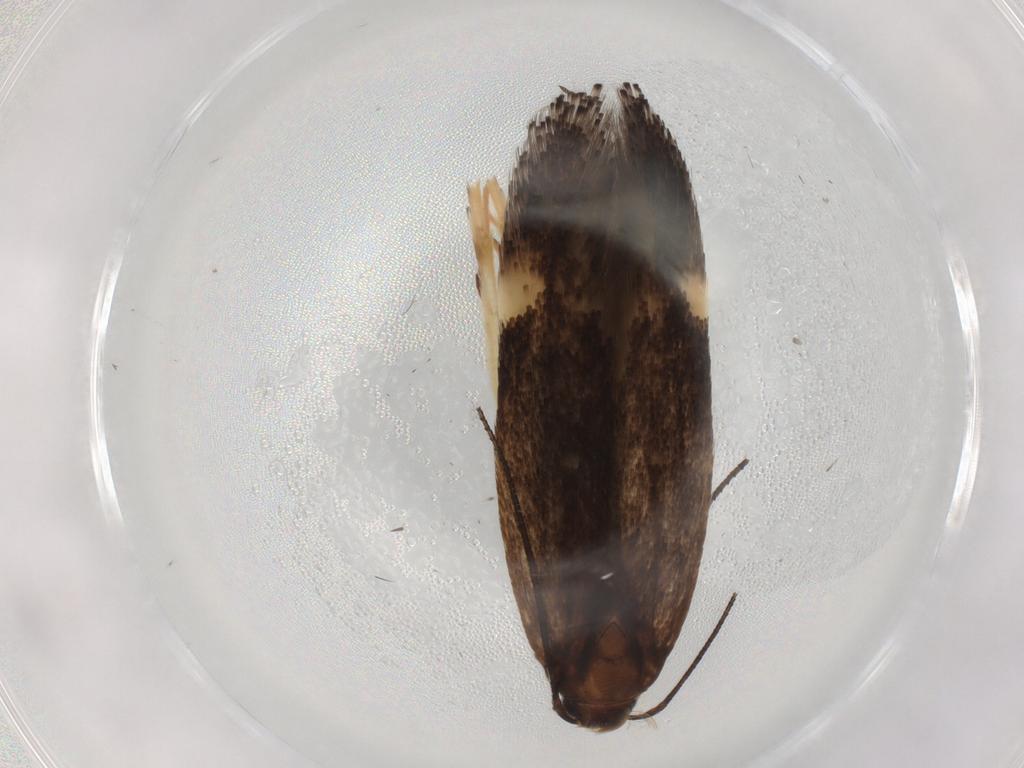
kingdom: Animalia
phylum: Arthropoda
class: Insecta
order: Lepidoptera
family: Gelechiidae
